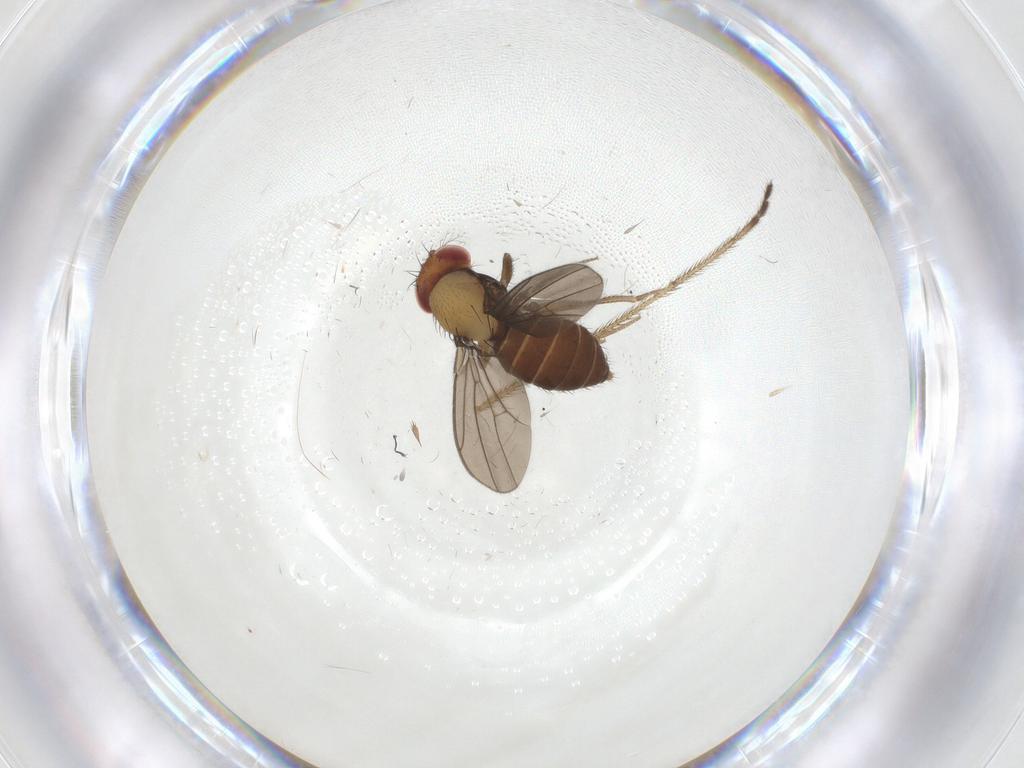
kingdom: Animalia
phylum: Arthropoda
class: Insecta
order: Diptera
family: Drosophilidae
